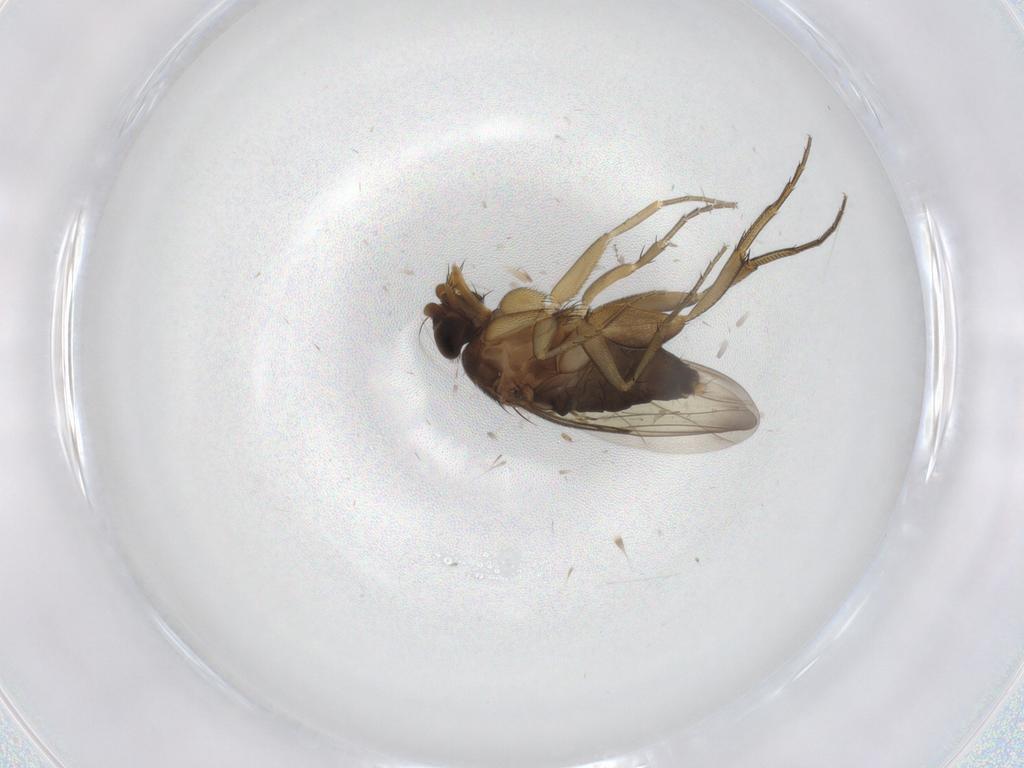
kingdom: Animalia
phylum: Arthropoda
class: Insecta
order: Diptera
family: Phoridae
